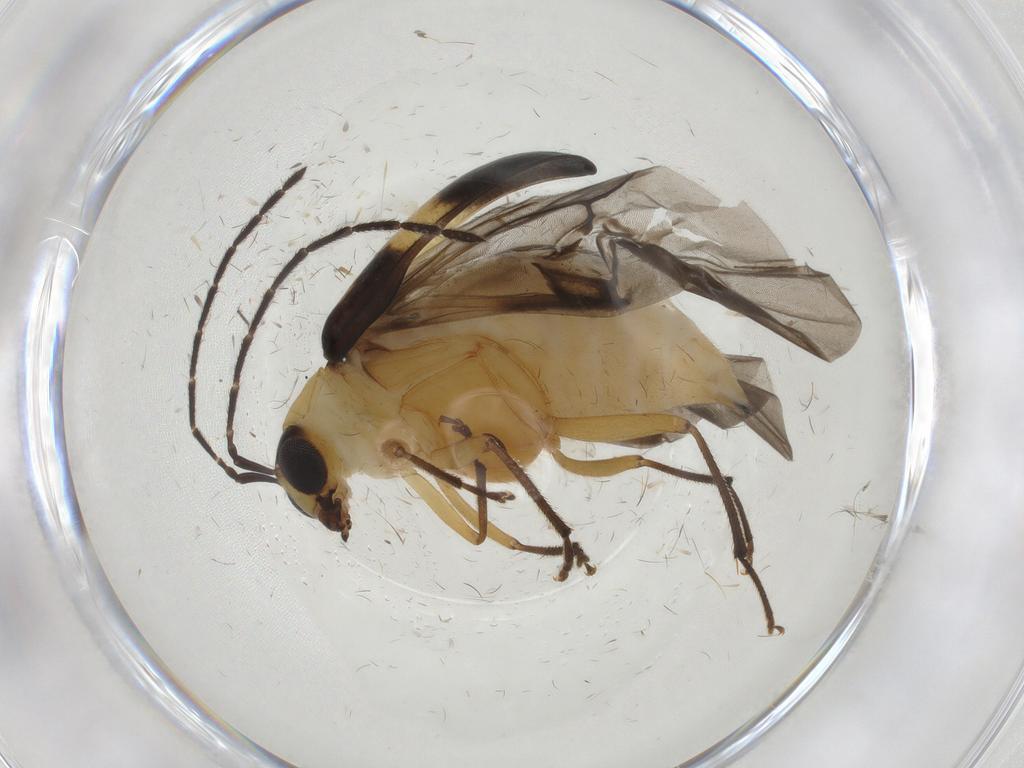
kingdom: Animalia
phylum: Arthropoda
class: Insecta
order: Coleoptera
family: Chrysomelidae
